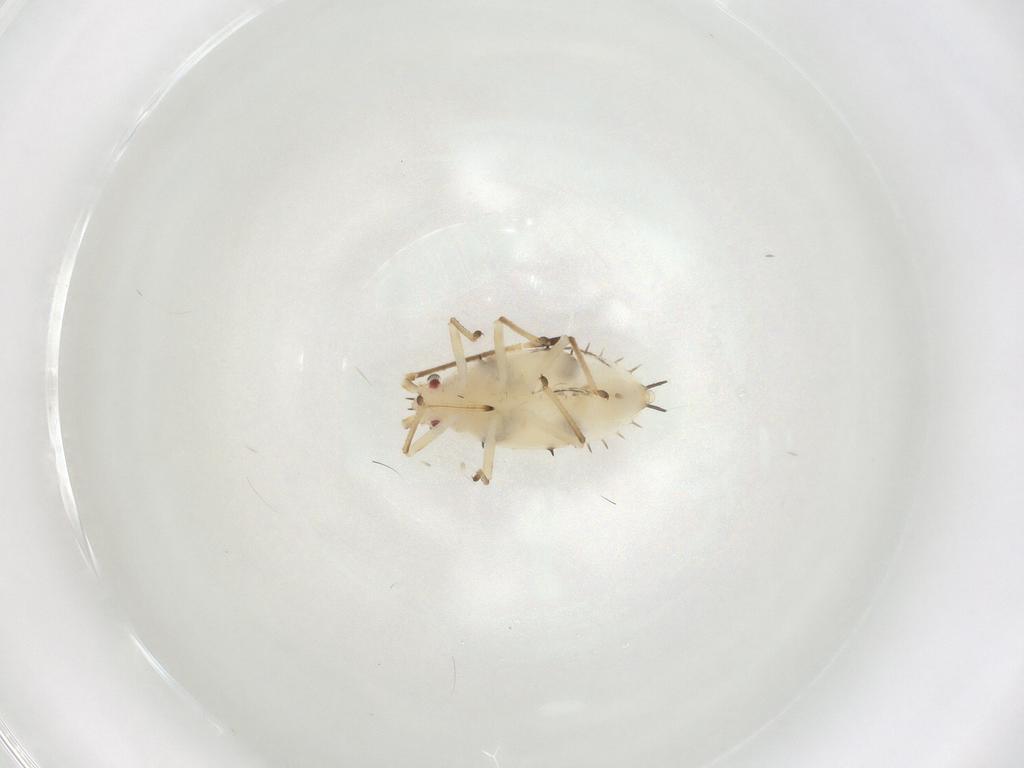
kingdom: Animalia
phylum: Arthropoda
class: Insecta
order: Hemiptera
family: Tingidae
